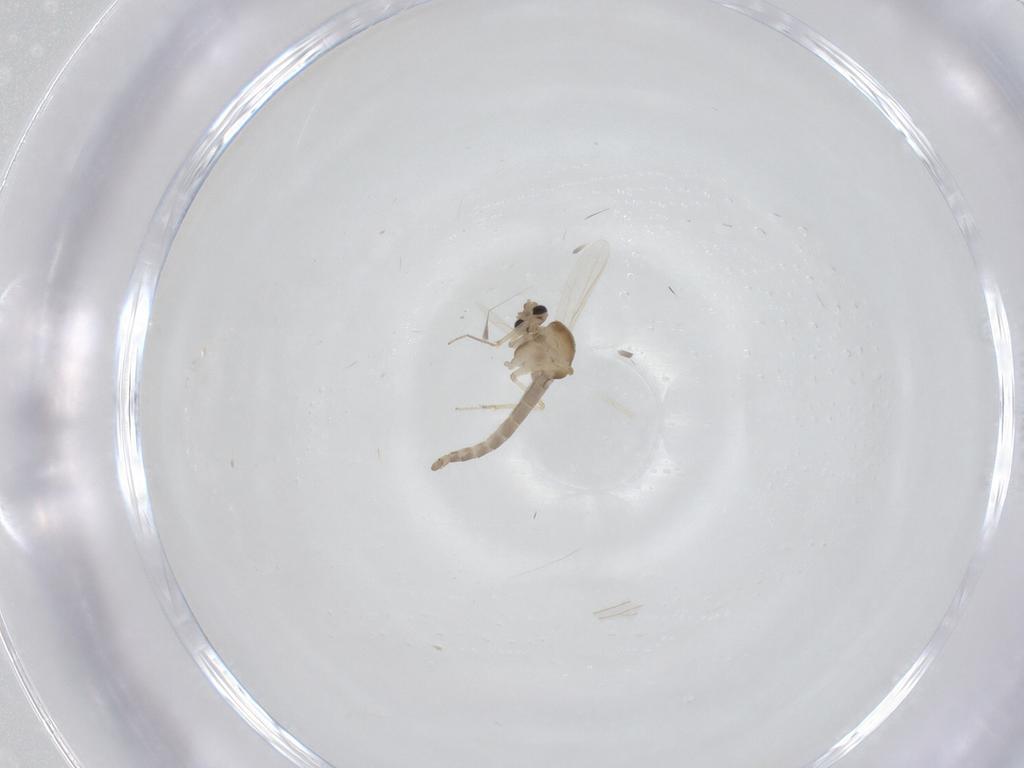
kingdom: Animalia
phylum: Arthropoda
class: Insecta
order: Diptera
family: Ceratopogonidae
